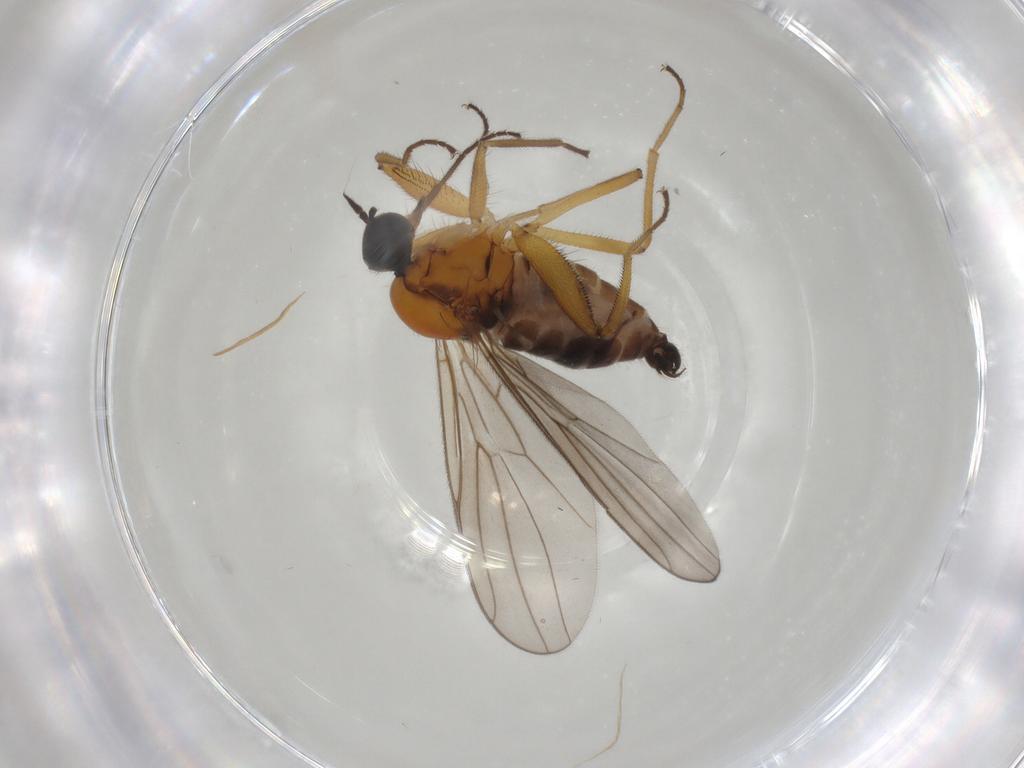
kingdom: Animalia
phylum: Arthropoda
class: Insecta
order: Diptera
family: Hybotidae
